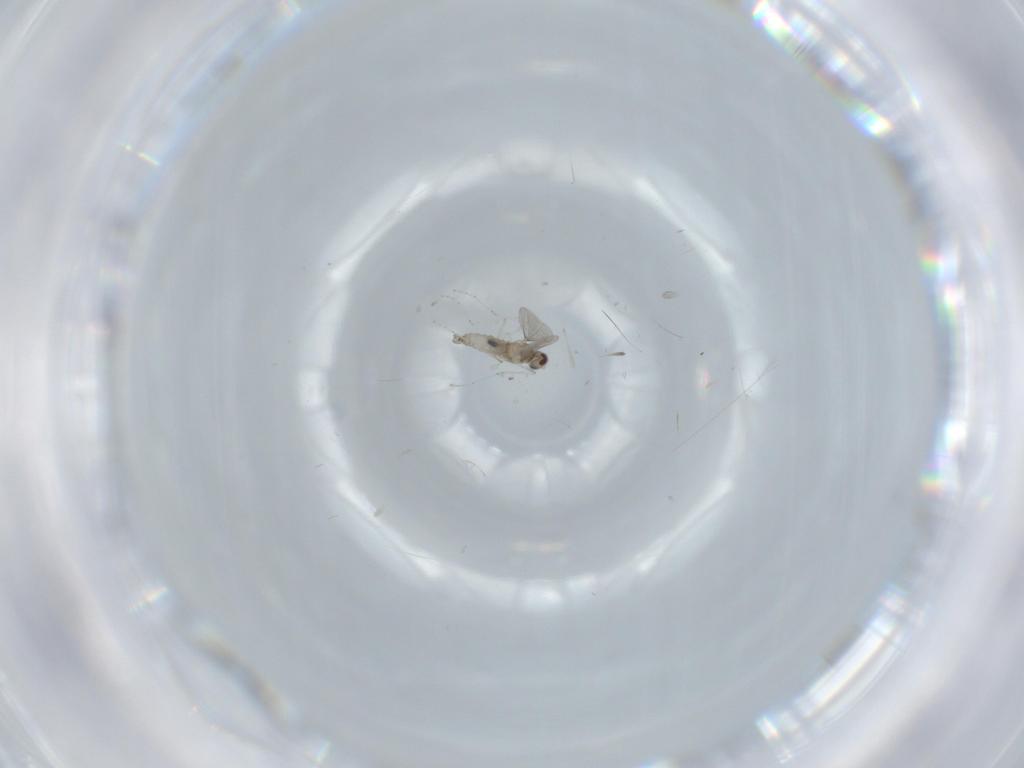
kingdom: Animalia
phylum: Arthropoda
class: Insecta
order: Diptera
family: Cecidomyiidae
